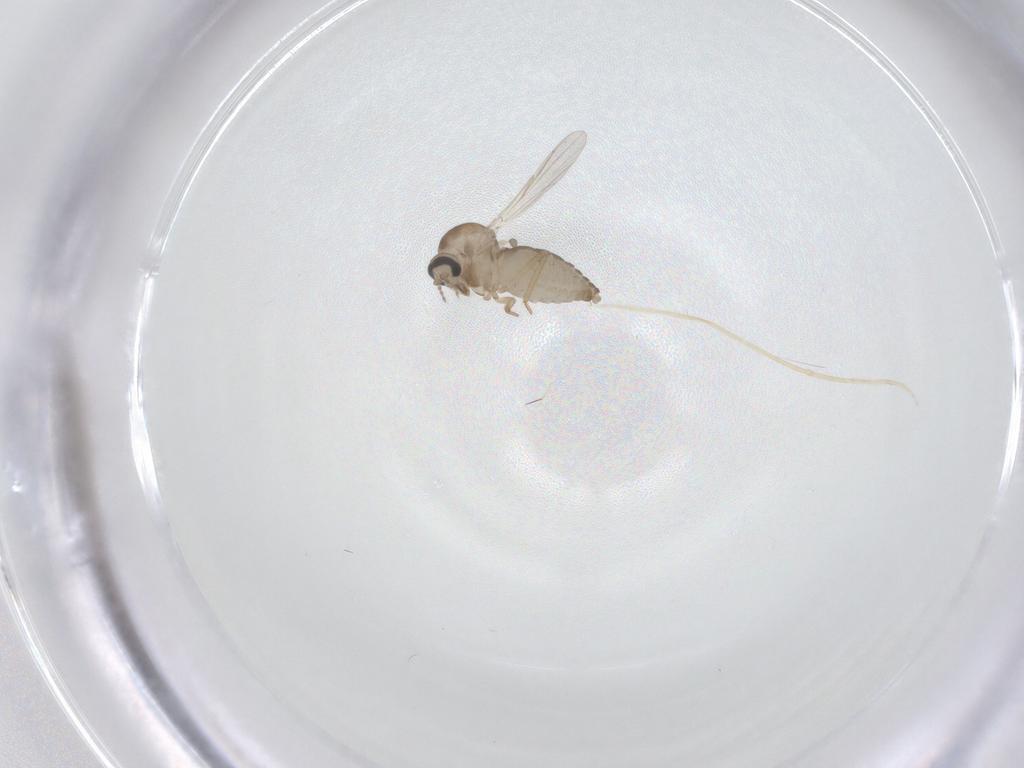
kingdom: Animalia
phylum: Arthropoda
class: Insecta
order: Diptera
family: Ceratopogonidae
